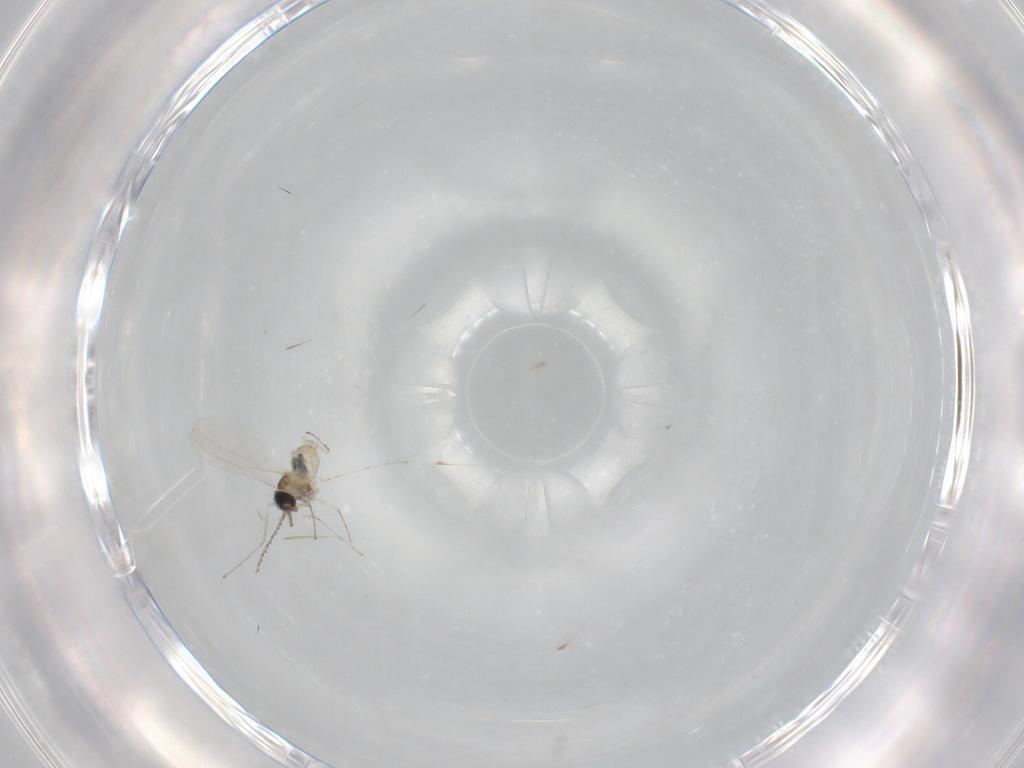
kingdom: Animalia
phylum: Arthropoda
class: Insecta
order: Diptera
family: Cecidomyiidae
